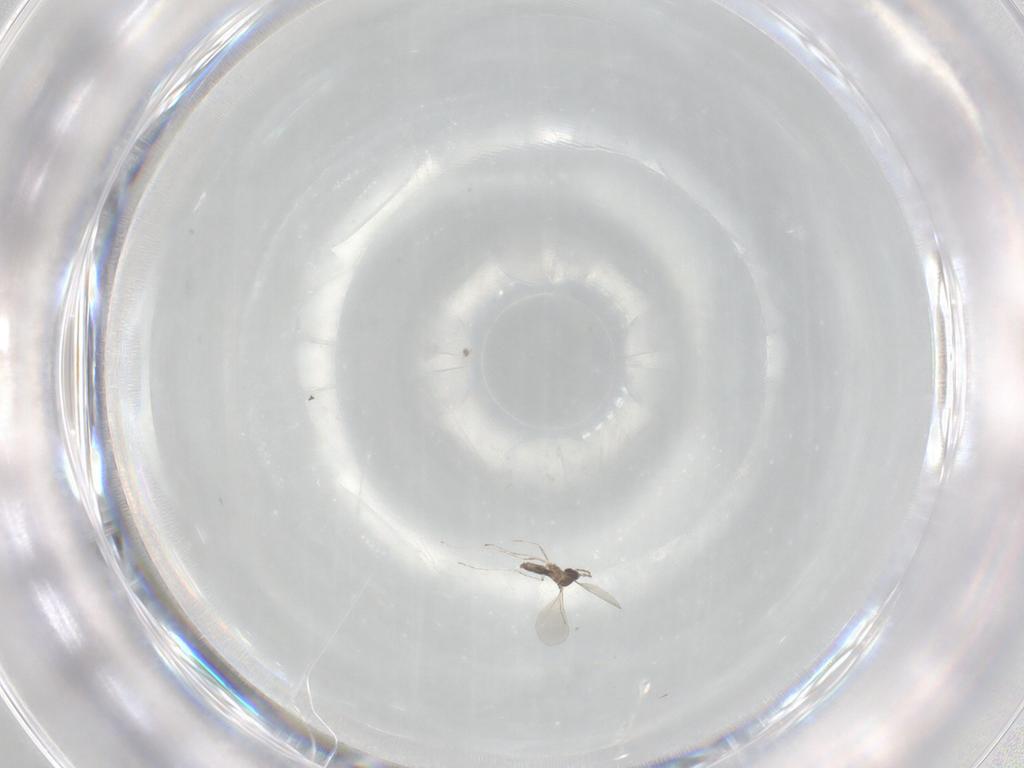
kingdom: Animalia
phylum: Arthropoda
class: Insecta
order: Diptera
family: Cecidomyiidae
